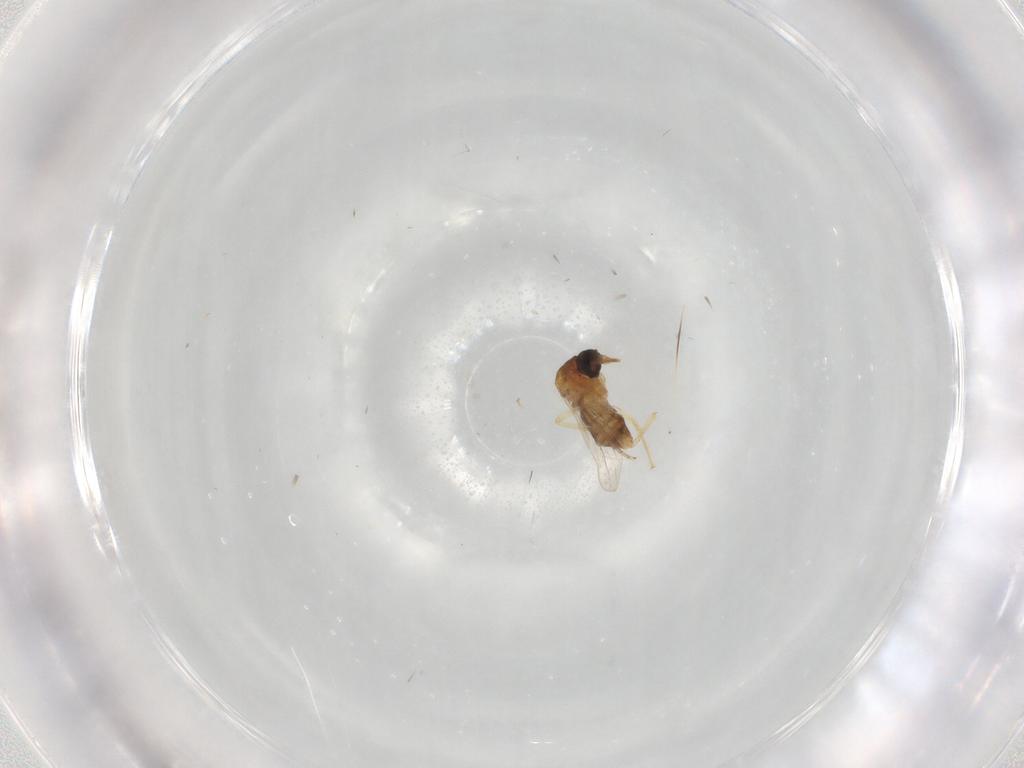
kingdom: Animalia
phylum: Arthropoda
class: Insecta
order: Diptera
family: Ceratopogonidae
